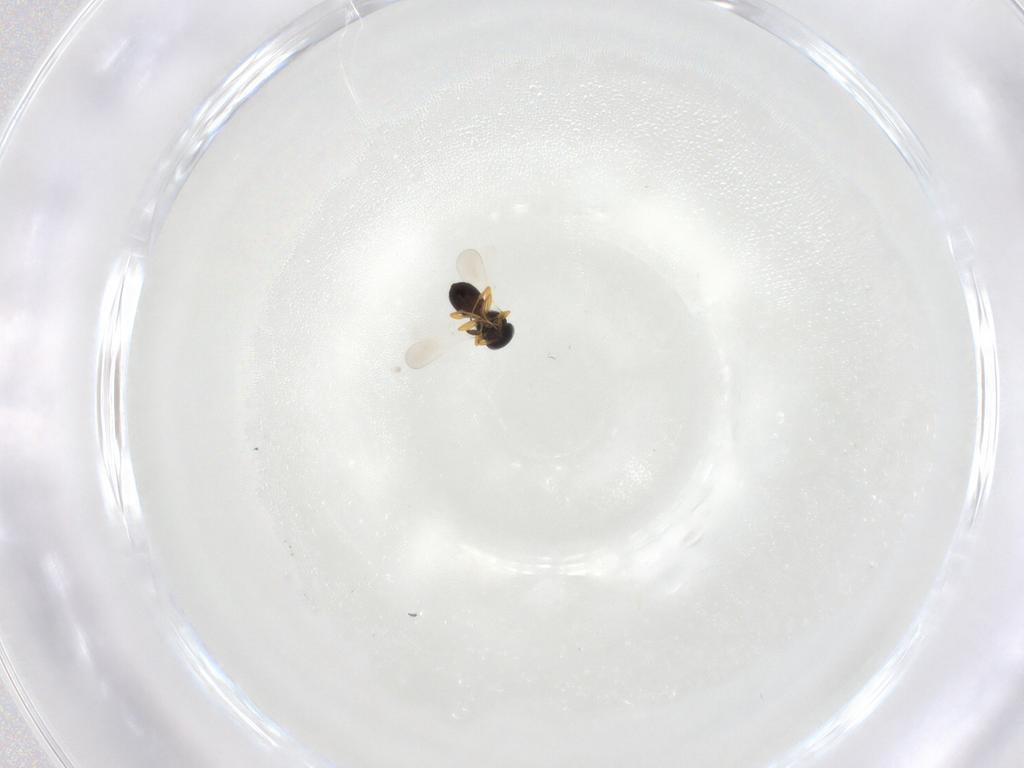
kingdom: Animalia
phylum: Arthropoda
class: Insecta
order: Hymenoptera
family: Platygastridae
